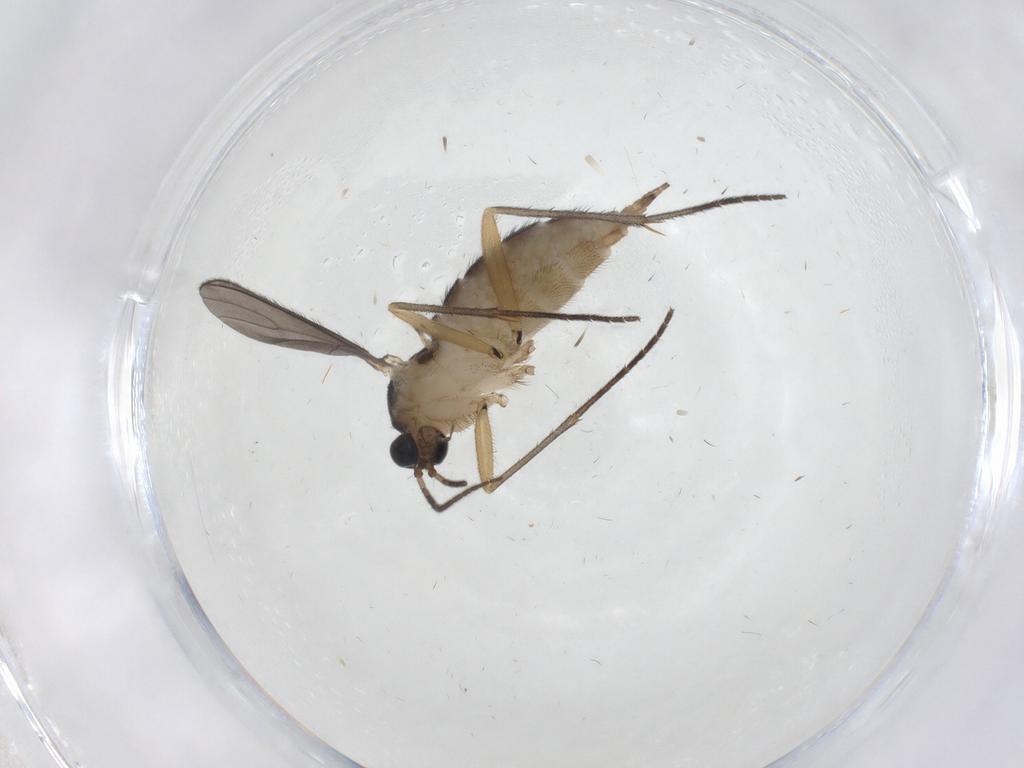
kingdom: Animalia
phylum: Arthropoda
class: Insecta
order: Diptera
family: Sciaridae
